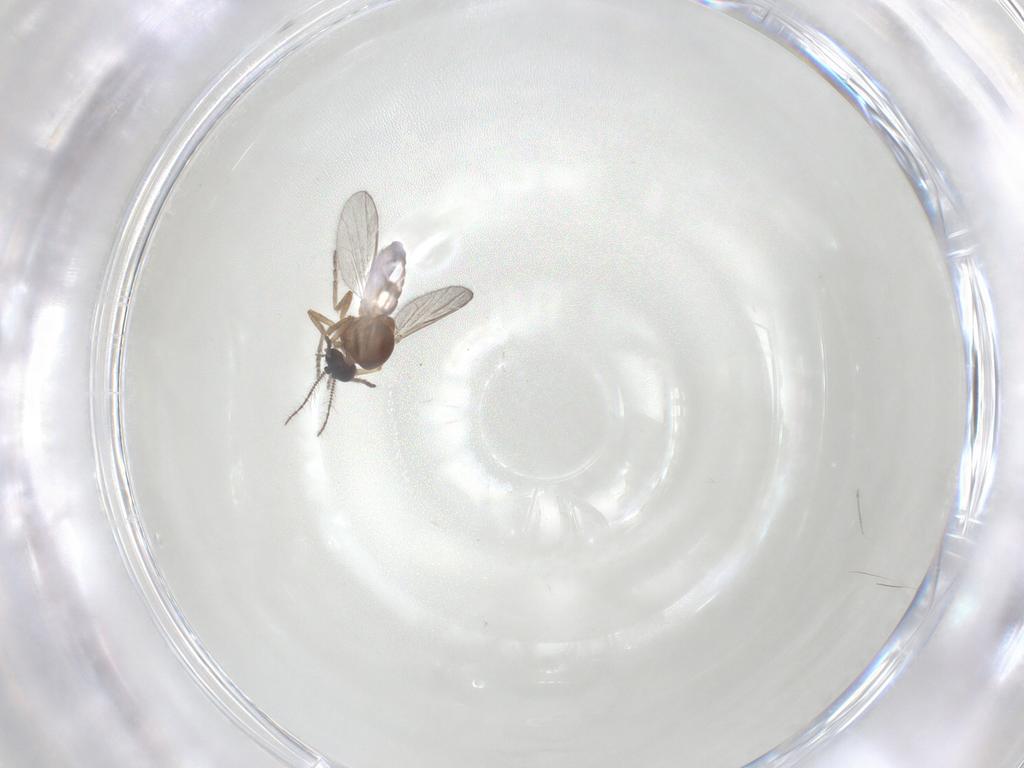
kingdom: Animalia
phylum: Arthropoda
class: Insecta
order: Diptera
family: Ceratopogonidae
